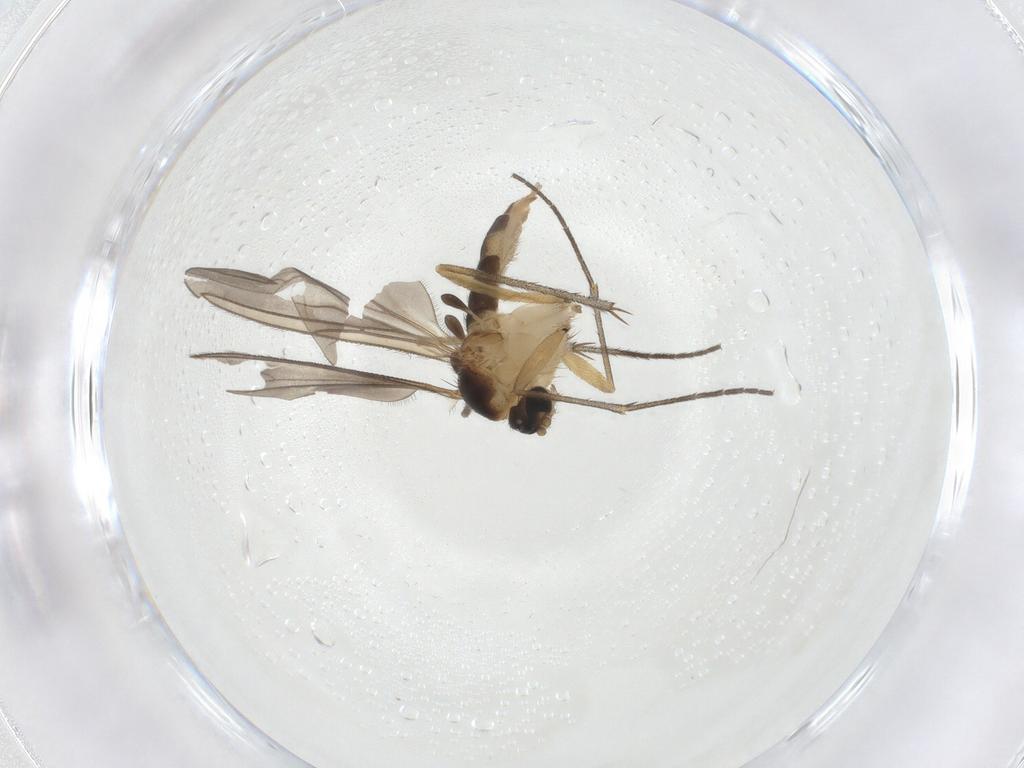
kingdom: Animalia
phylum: Arthropoda
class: Insecta
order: Diptera
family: Sciaridae
